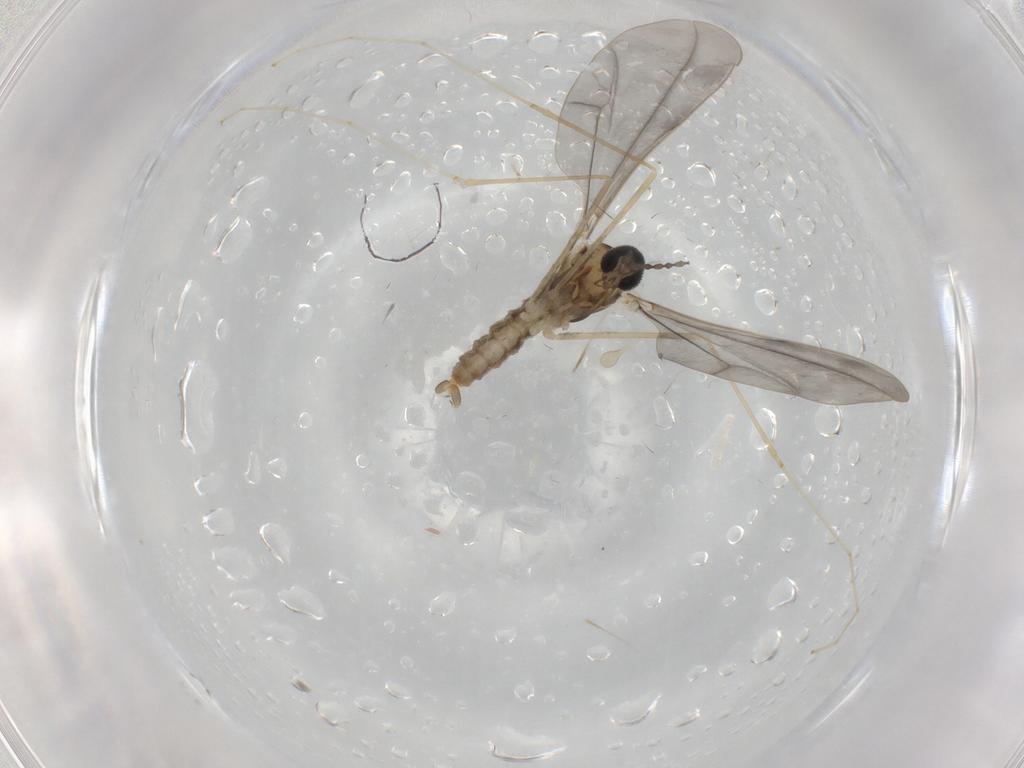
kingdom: Animalia
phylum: Arthropoda
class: Insecta
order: Diptera
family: Cecidomyiidae
